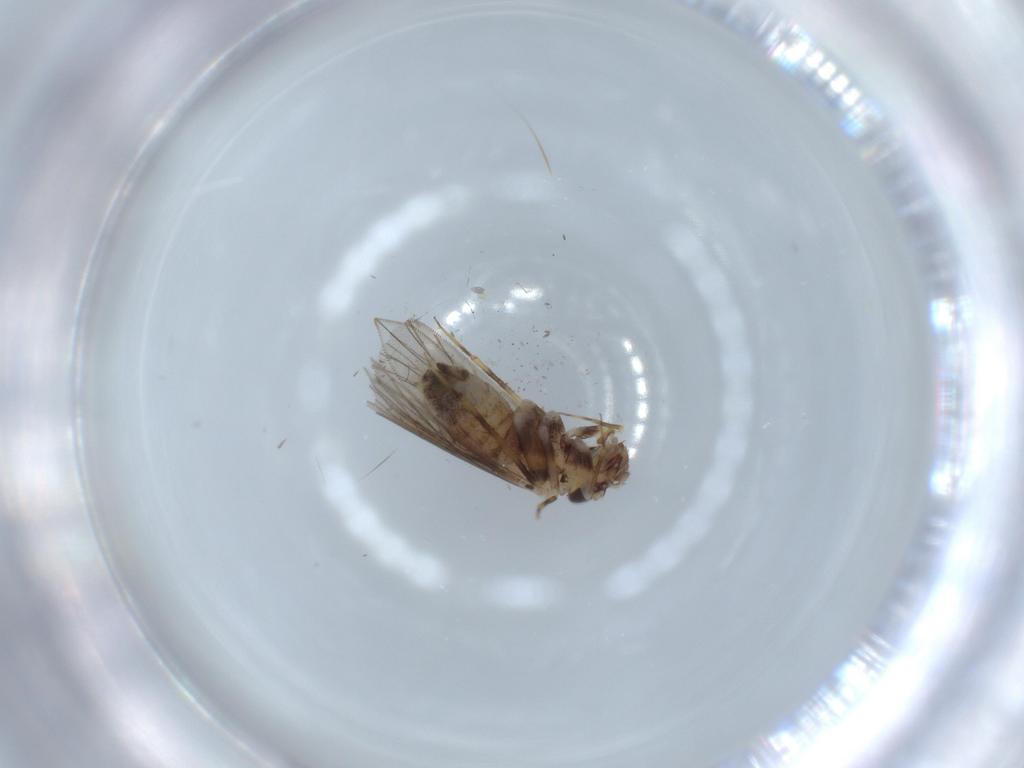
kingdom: Animalia
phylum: Arthropoda
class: Insecta
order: Psocodea
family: Lepidopsocidae
